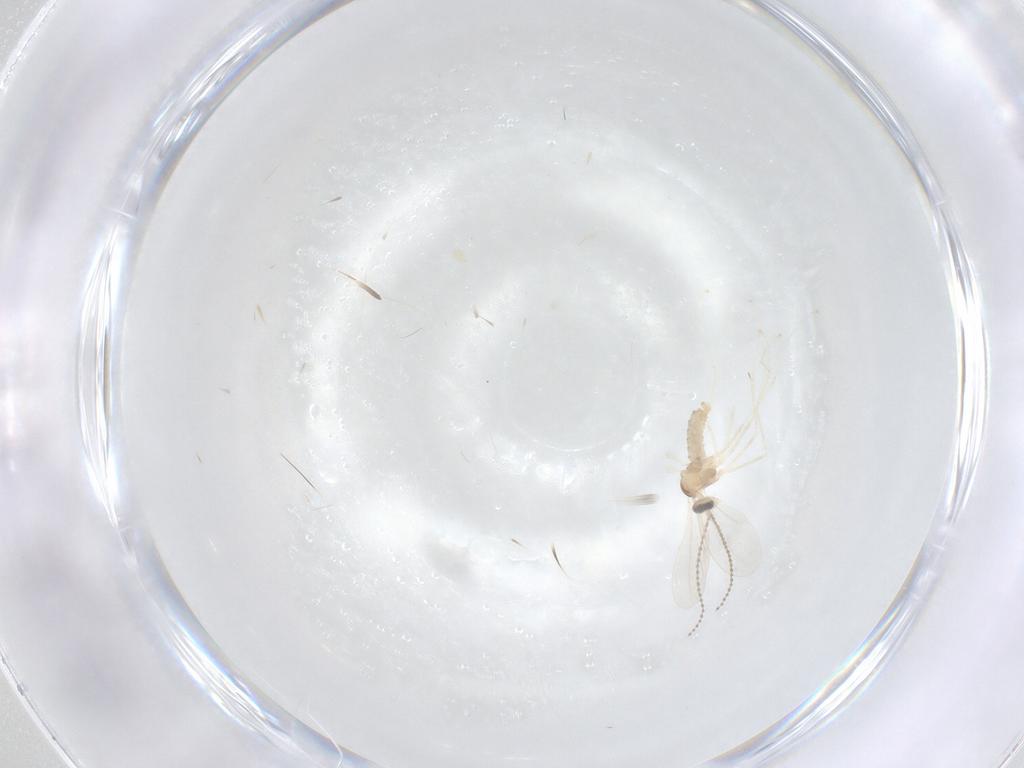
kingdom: Animalia
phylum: Arthropoda
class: Insecta
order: Diptera
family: Cecidomyiidae
